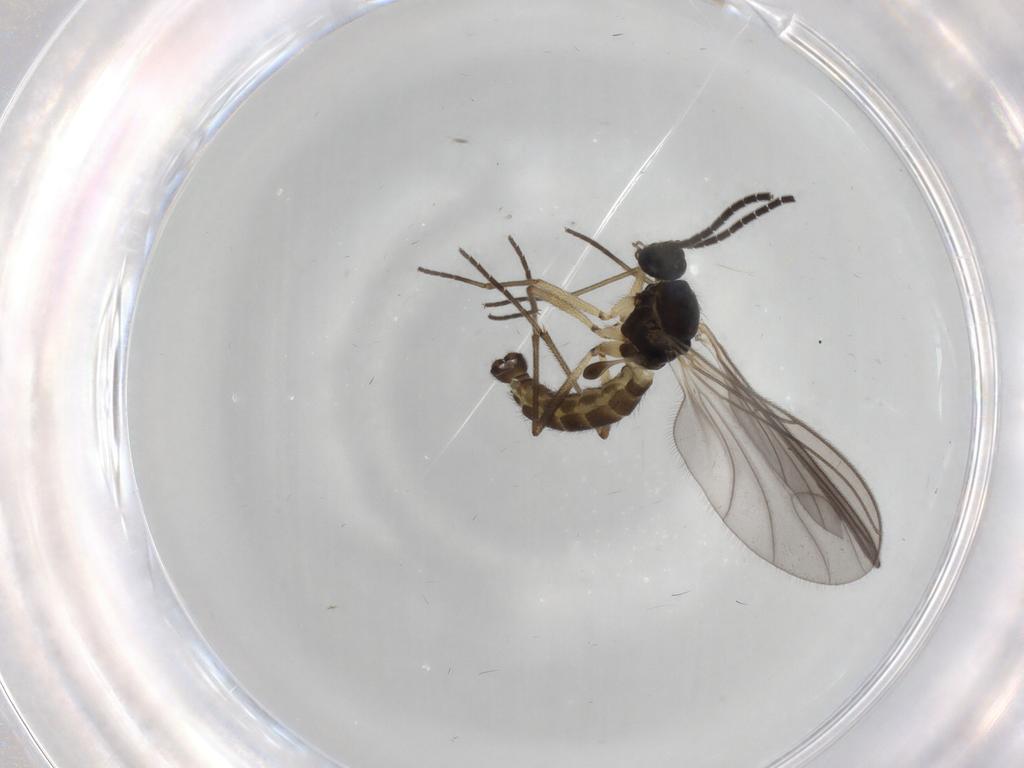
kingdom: Animalia
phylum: Arthropoda
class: Insecta
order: Diptera
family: Sciaridae
